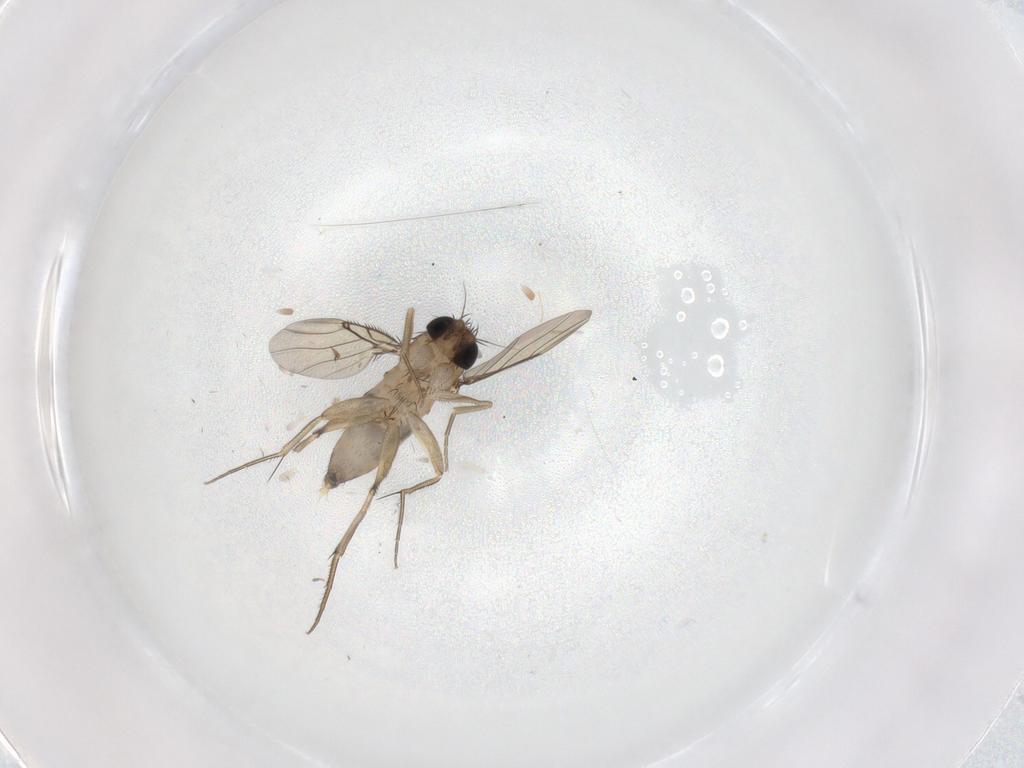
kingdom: Animalia
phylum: Arthropoda
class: Insecta
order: Diptera
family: Phoridae
